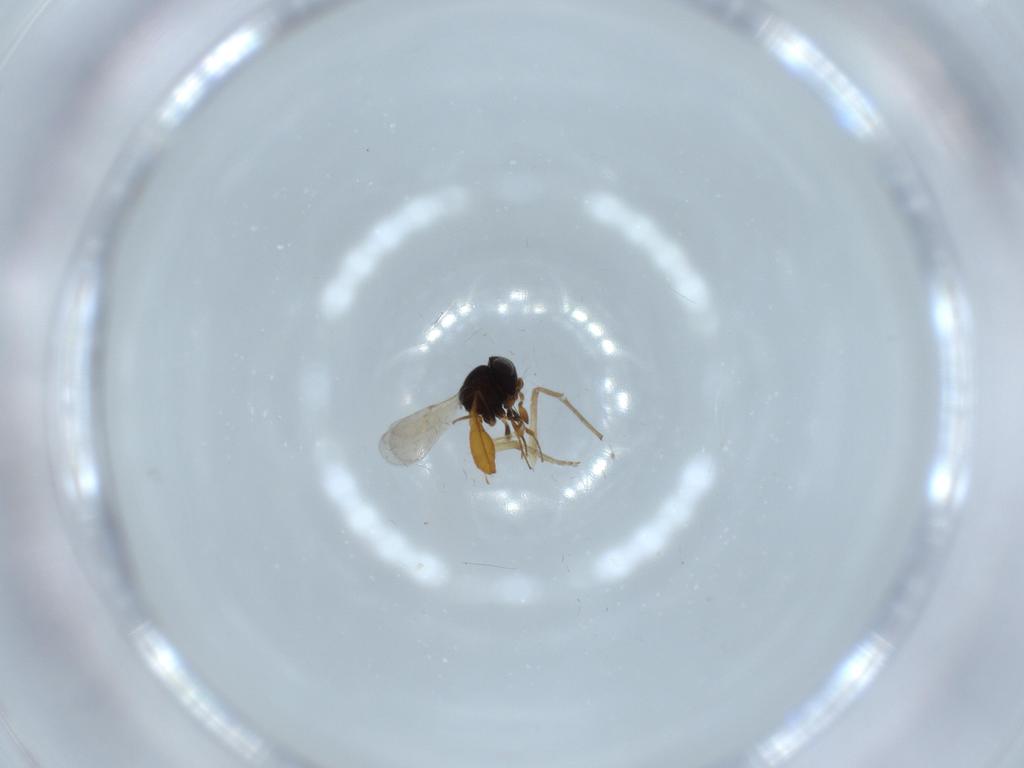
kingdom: Animalia
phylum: Arthropoda
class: Insecta
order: Hymenoptera
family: Scelionidae
